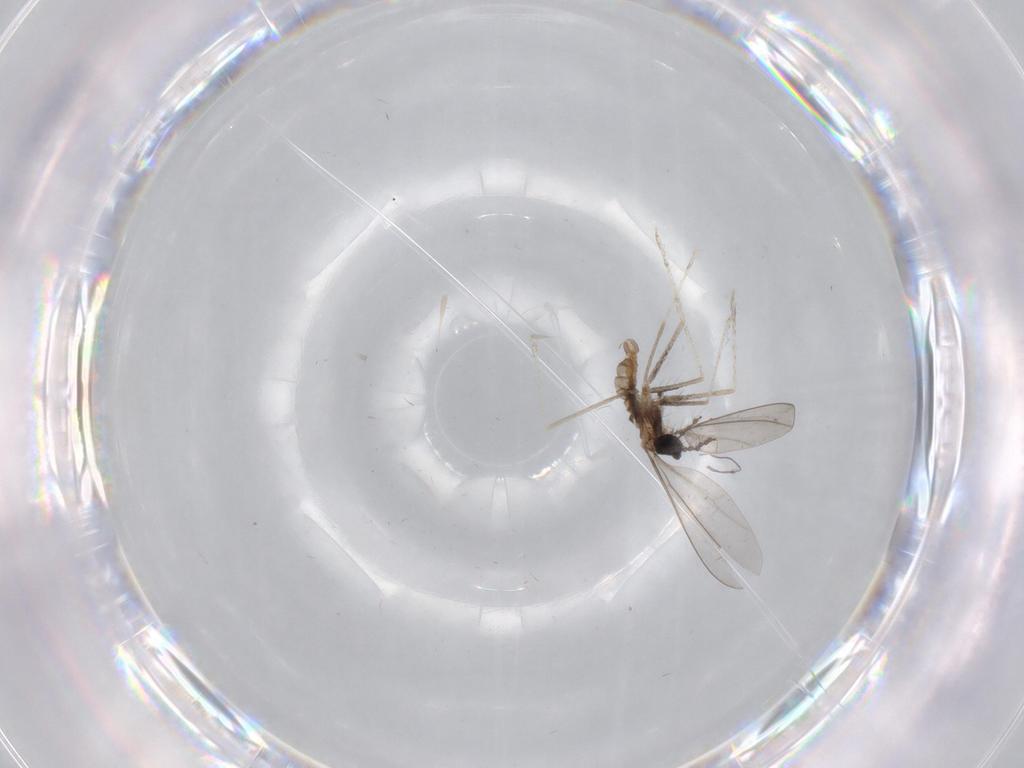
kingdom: Animalia
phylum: Arthropoda
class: Insecta
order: Diptera
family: Cecidomyiidae
